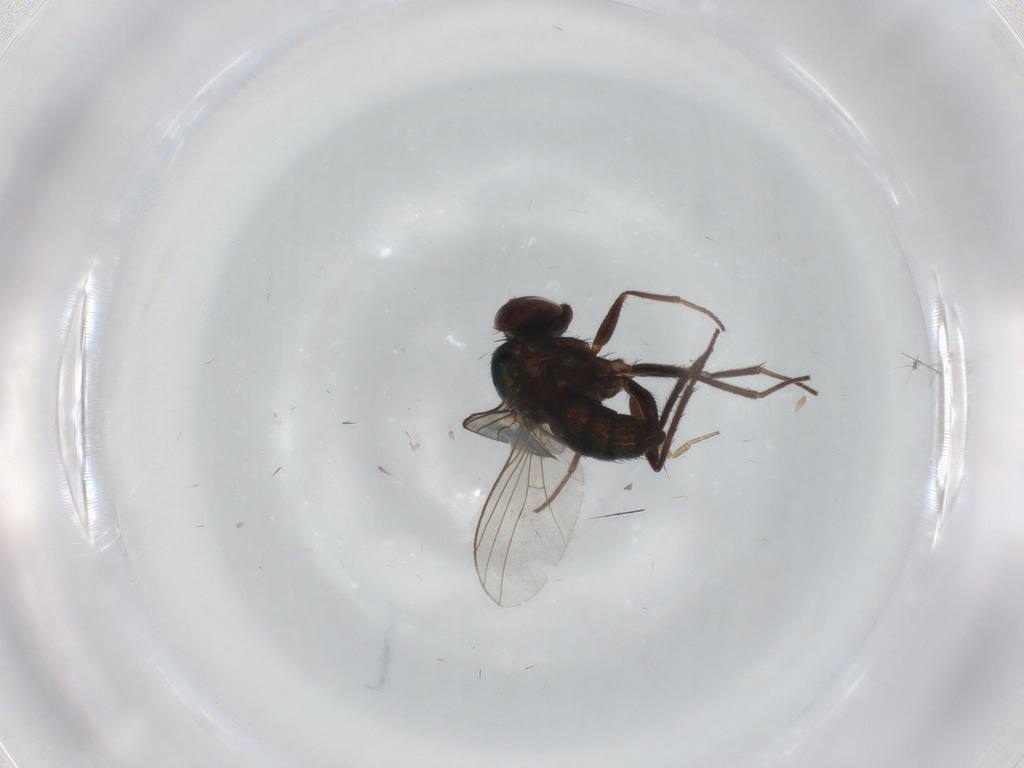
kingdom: Animalia
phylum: Arthropoda
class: Insecta
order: Diptera
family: Dolichopodidae
